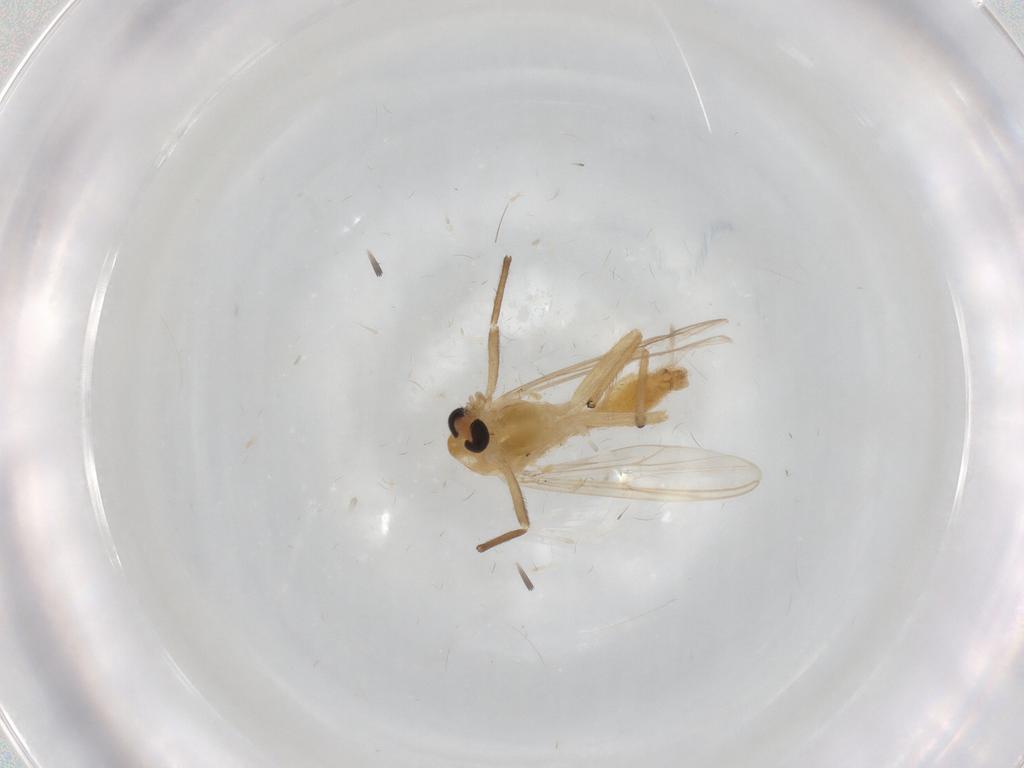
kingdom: Animalia
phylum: Arthropoda
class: Insecta
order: Diptera
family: Chironomidae
